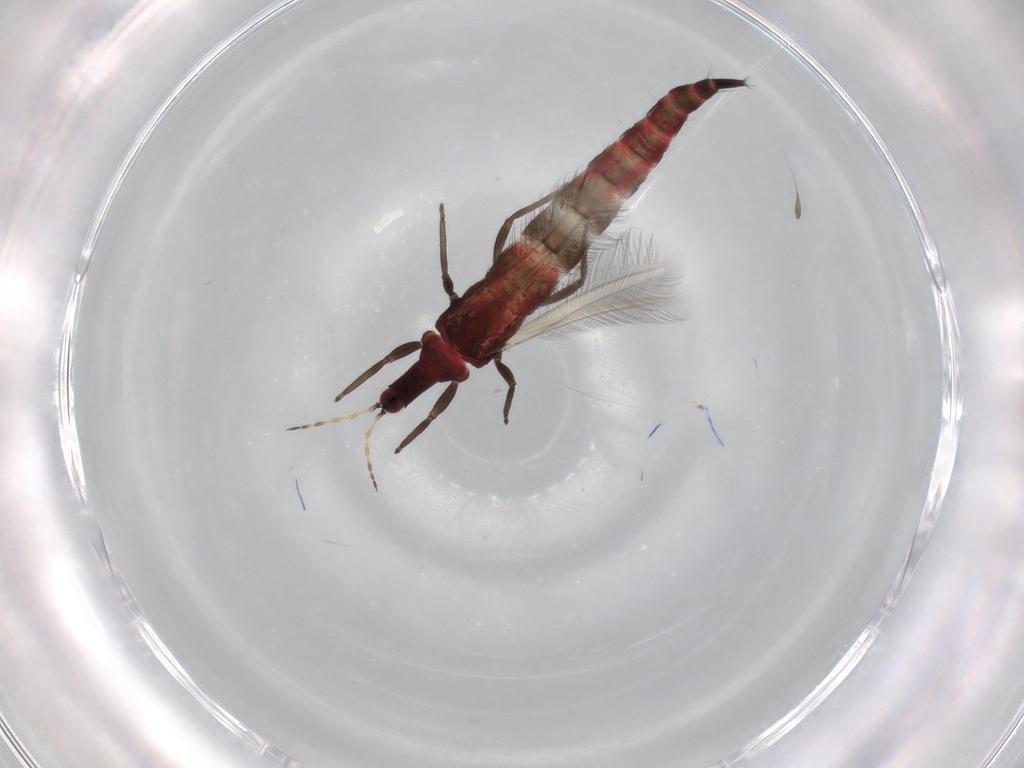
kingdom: Animalia
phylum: Arthropoda
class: Insecta
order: Thysanoptera
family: Phlaeothripidae
